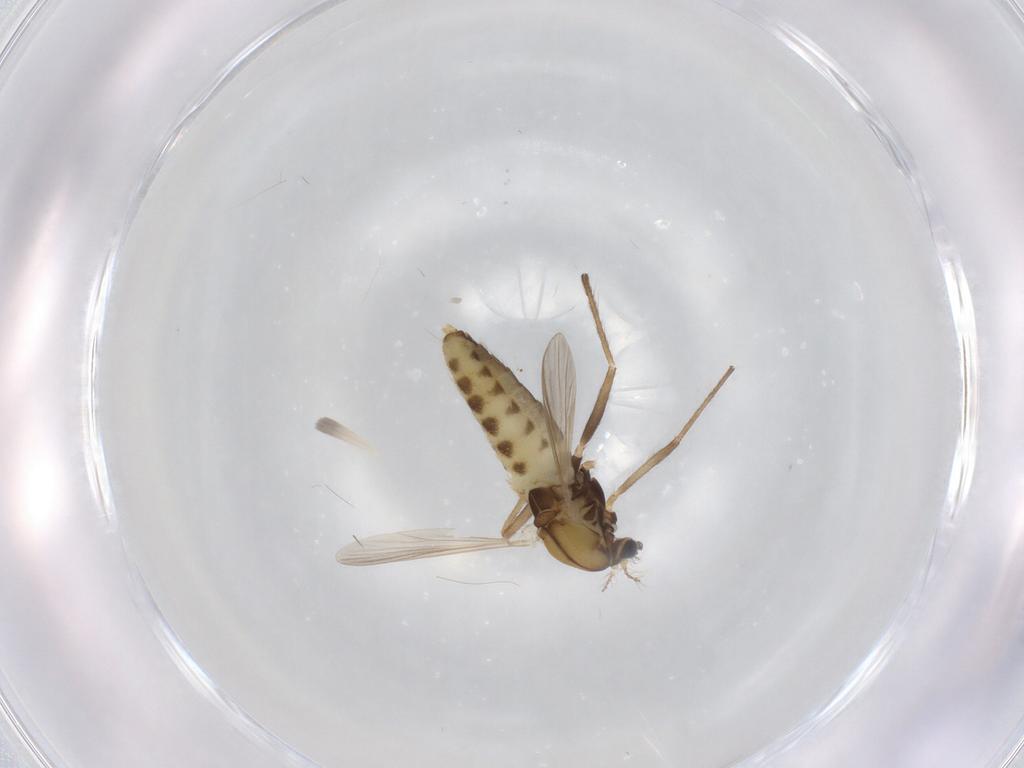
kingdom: Animalia
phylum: Arthropoda
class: Insecta
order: Diptera
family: Chironomidae
